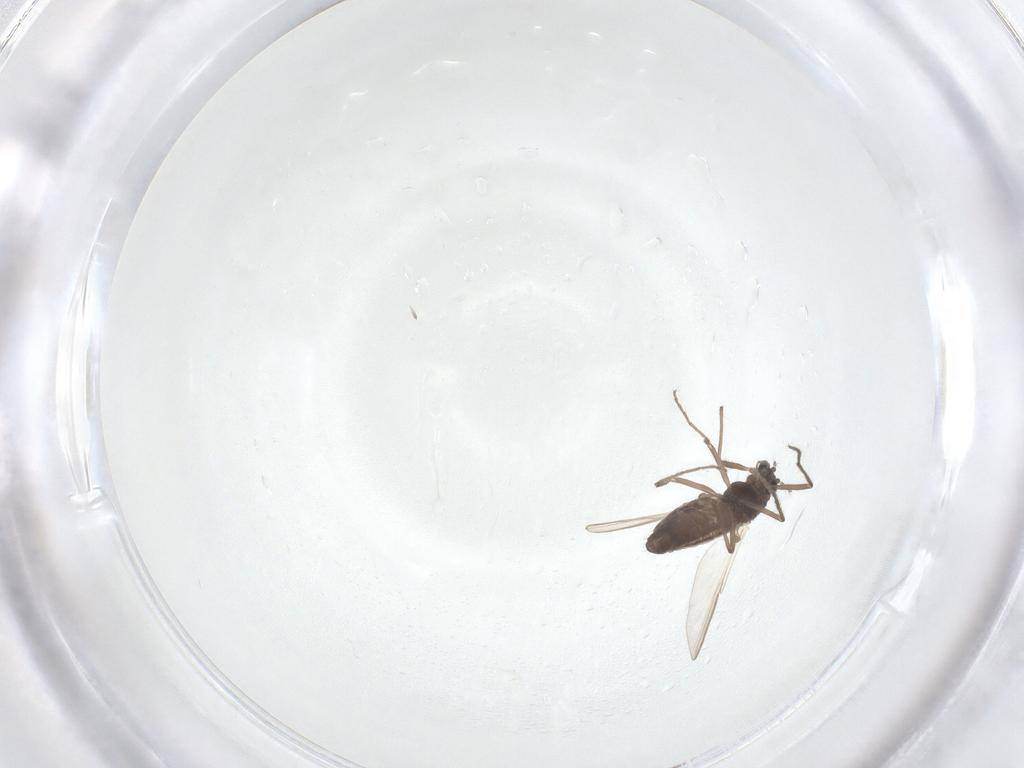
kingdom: Animalia
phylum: Arthropoda
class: Insecta
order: Diptera
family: Chironomidae
